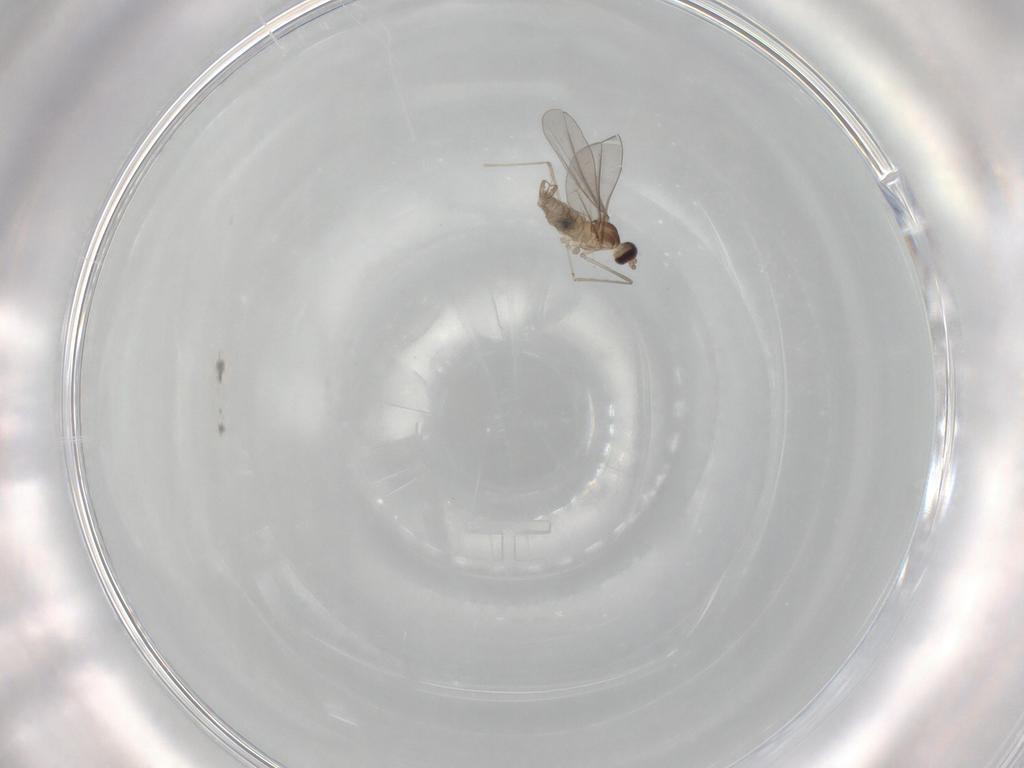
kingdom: Animalia
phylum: Arthropoda
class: Insecta
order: Diptera
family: Cecidomyiidae
